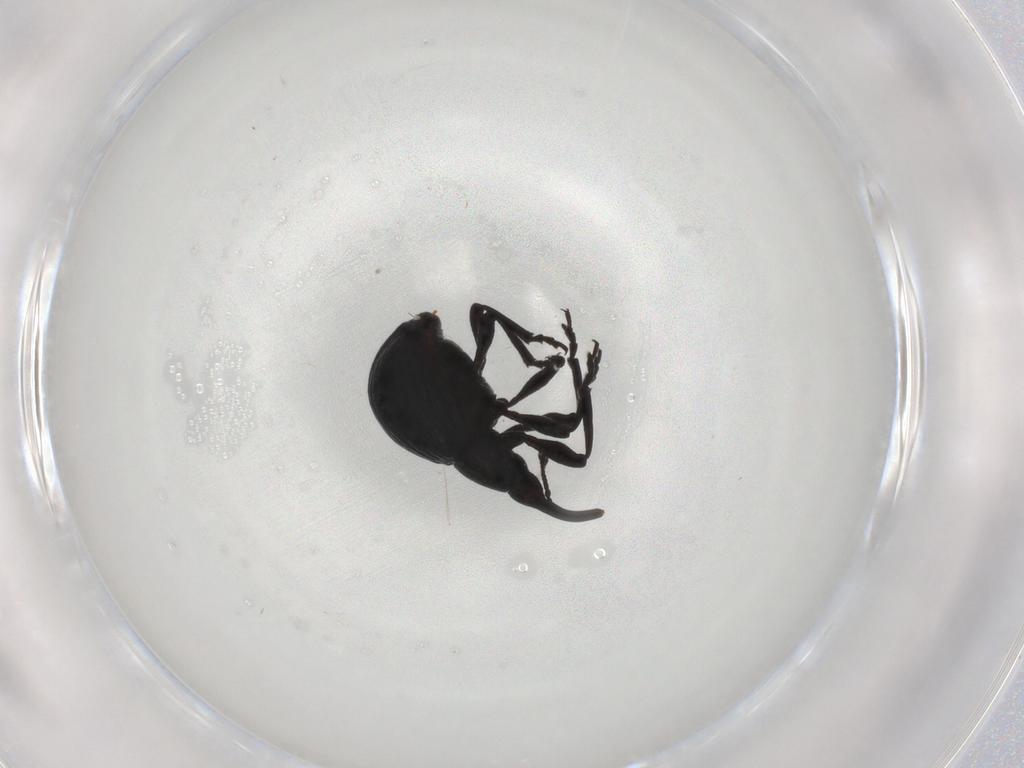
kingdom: Animalia
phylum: Arthropoda
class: Insecta
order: Coleoptera
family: Brentidae
